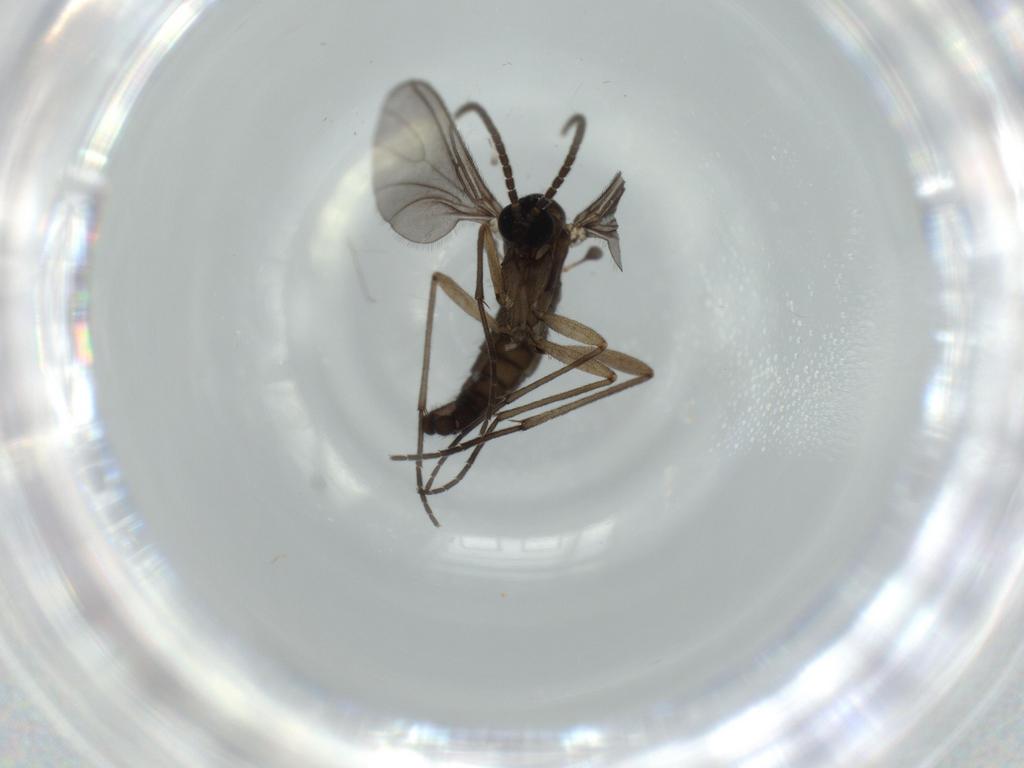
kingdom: Animalia
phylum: Arthropoda
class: Insecta
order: Diptera
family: Sciaridae
